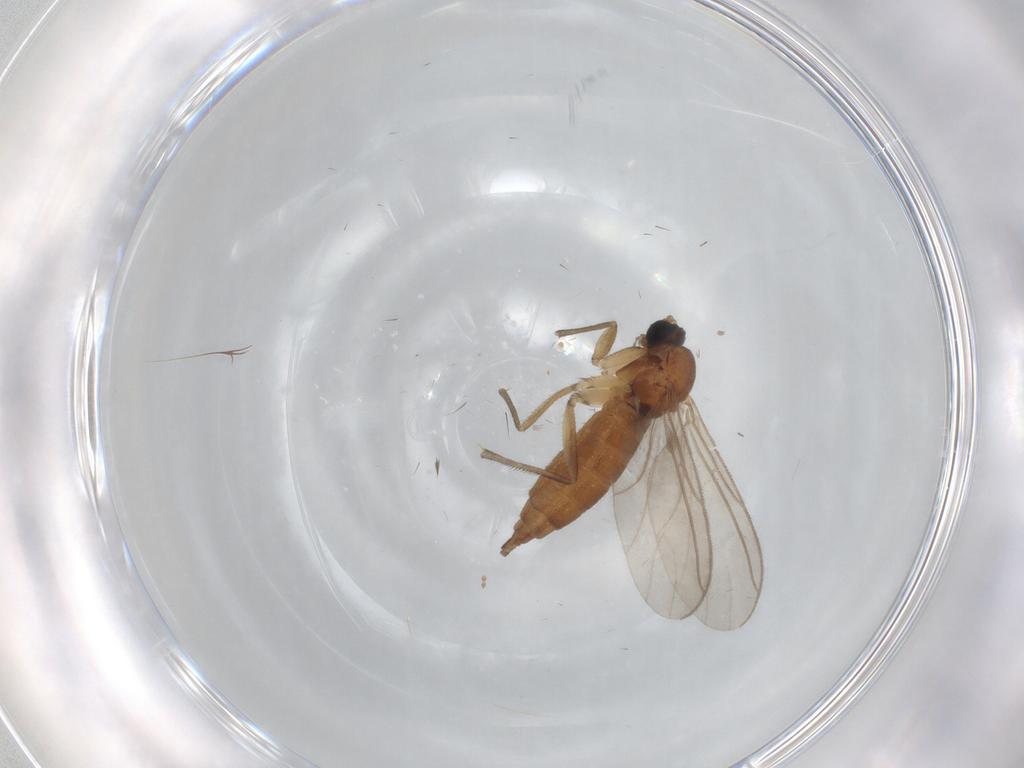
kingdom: Animalia
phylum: Arthropoda
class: Insecta
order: Diptera
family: Sciaridae
